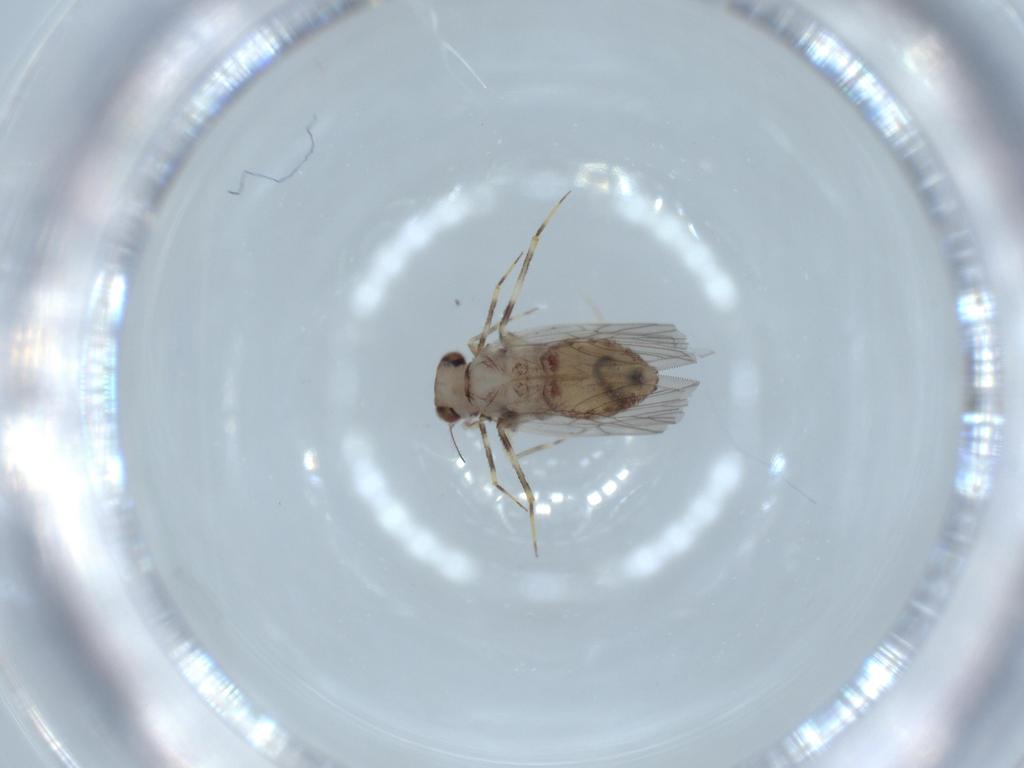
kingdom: Animalia
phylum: Arthropoda
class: Insecta
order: Psocodea
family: Lepidopsocidae
